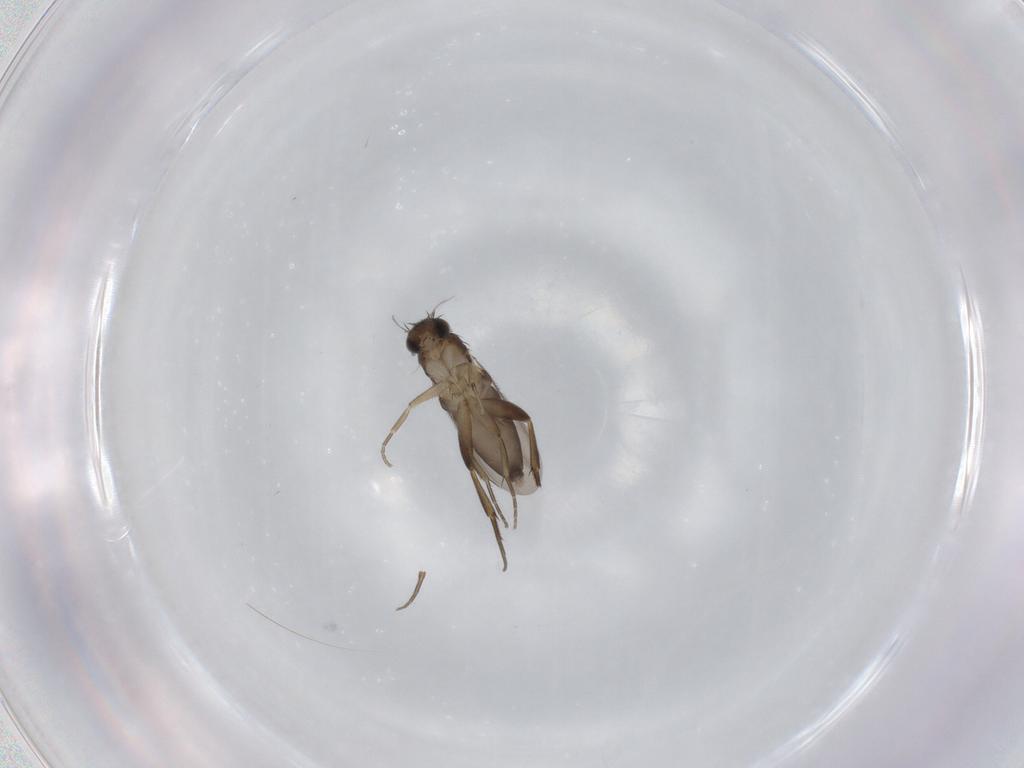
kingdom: Animalia
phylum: Arthropoda
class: Insecta
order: Diptera
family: Phoridae
